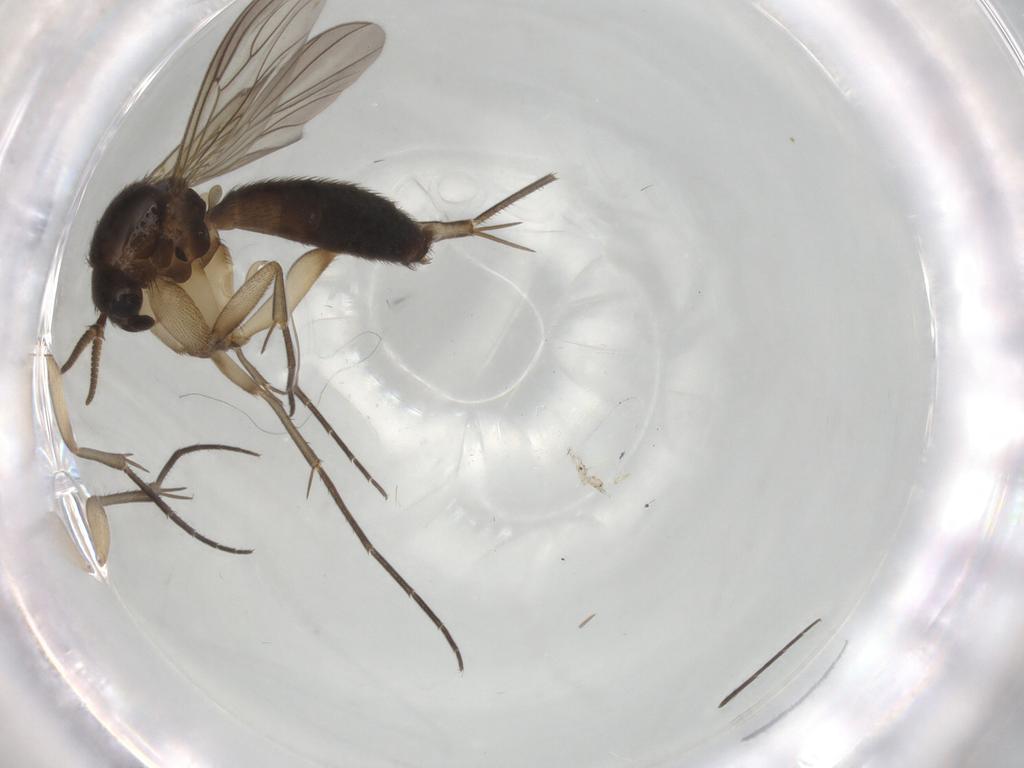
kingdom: Animalia
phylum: Arthropoda
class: Insecta
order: Diptera
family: Mycetophilidae
